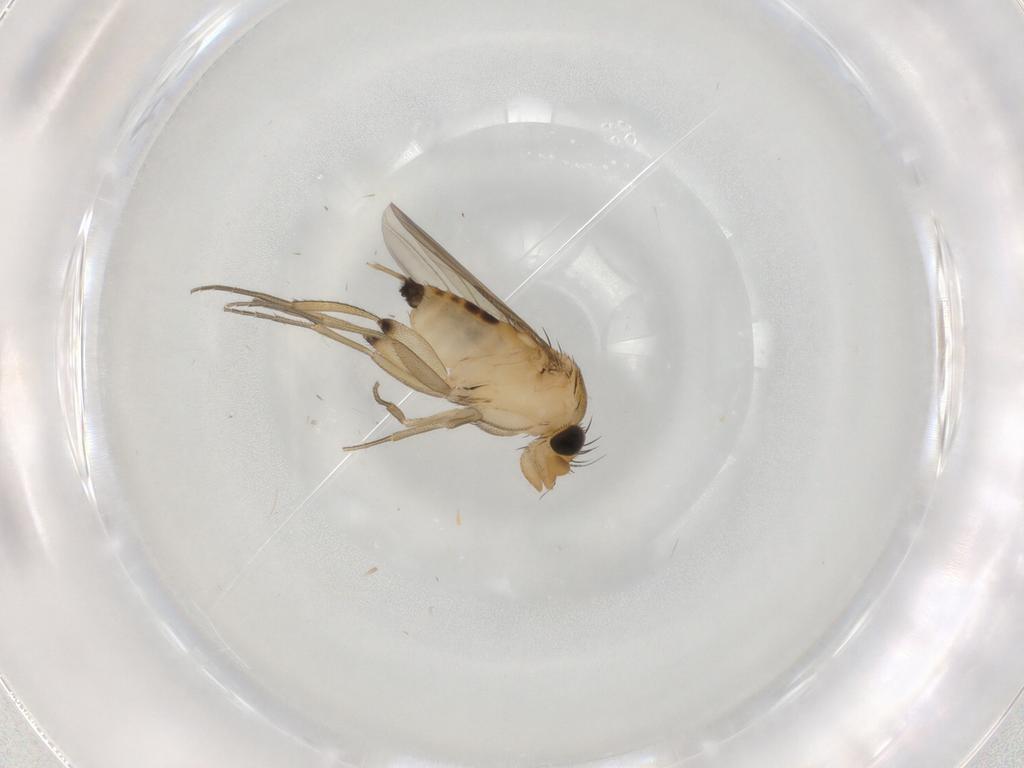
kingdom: Animalia
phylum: Arthropoda
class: Insecta
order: Diptera
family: Phoridae
